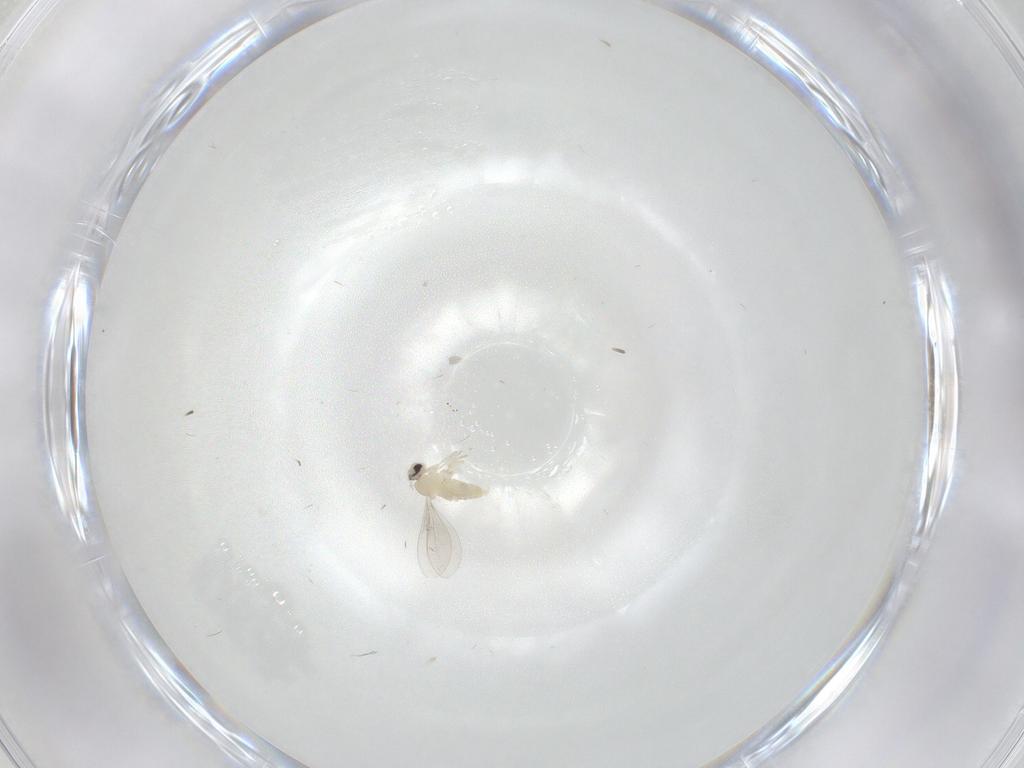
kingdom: Animalia
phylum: Arthropoda
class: Insecta
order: Diptera
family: Cecidomyiidae
